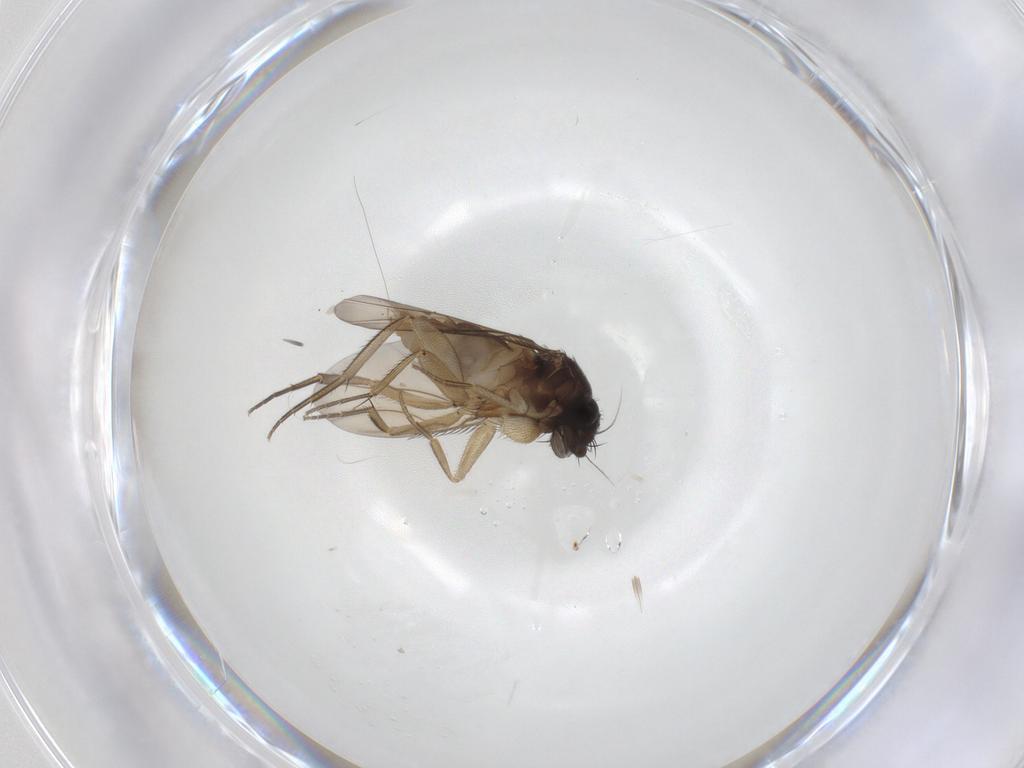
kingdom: Animalia
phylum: Arthropoda
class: Insecta
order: Diptera
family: Phoridae
